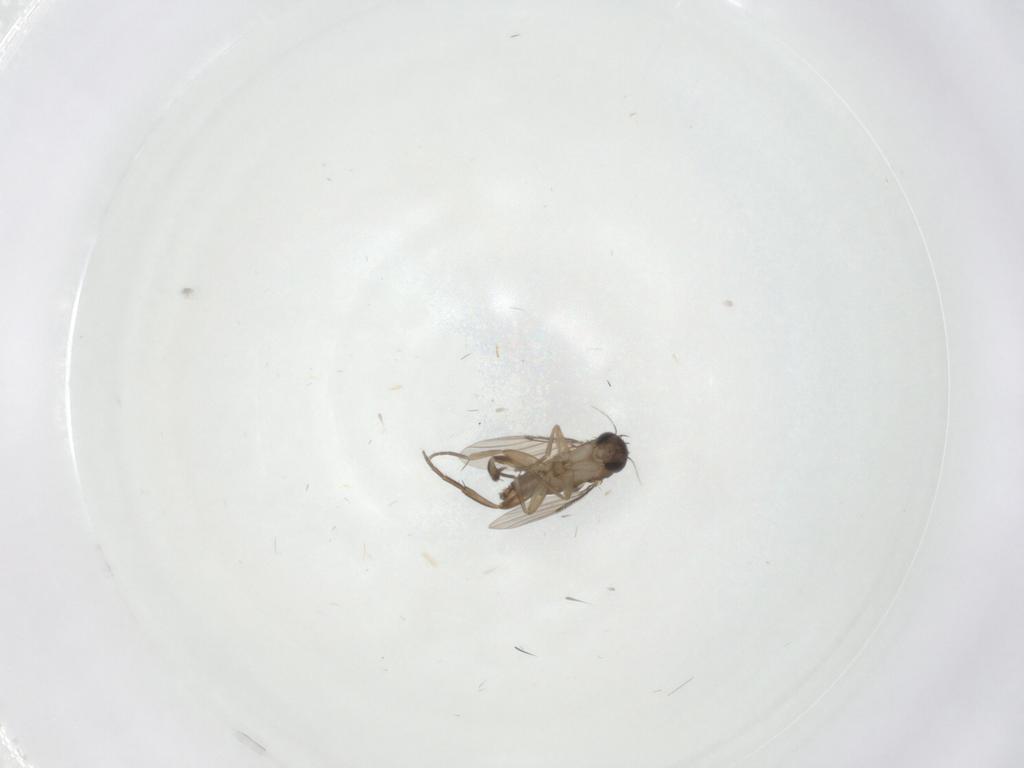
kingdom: Animalia
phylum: Arthropoda
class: Insecta
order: Diptera
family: Phoridae
